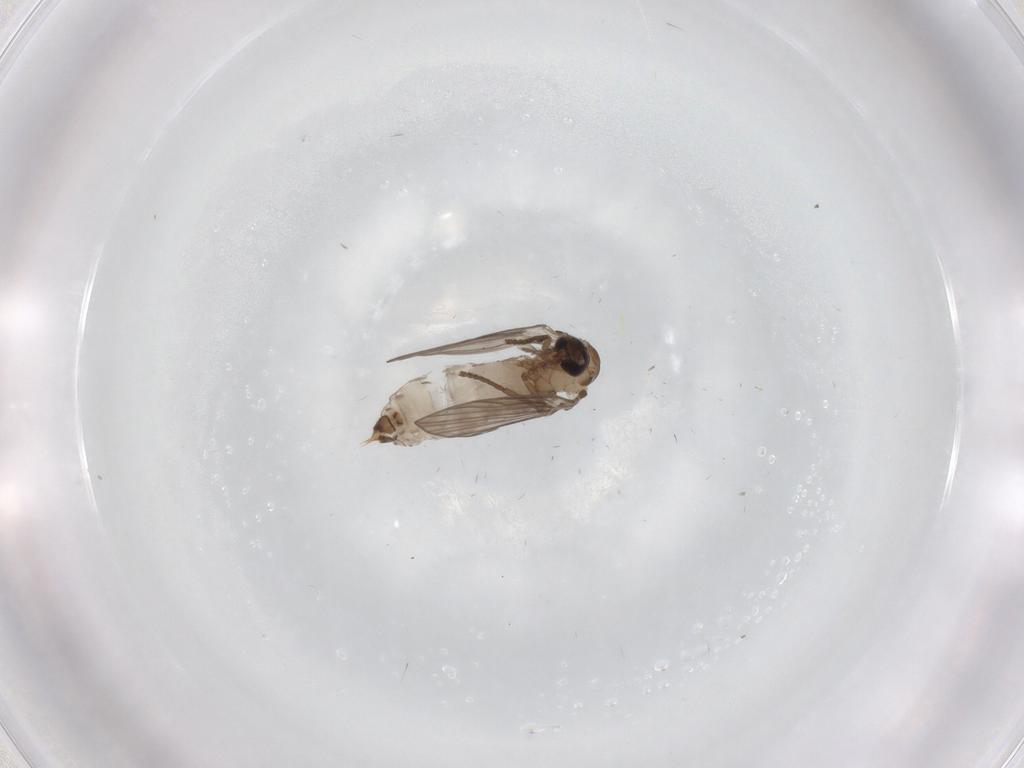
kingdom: Animalia
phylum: Arthropoda
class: Insecta
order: Diptera
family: Psychodidae
